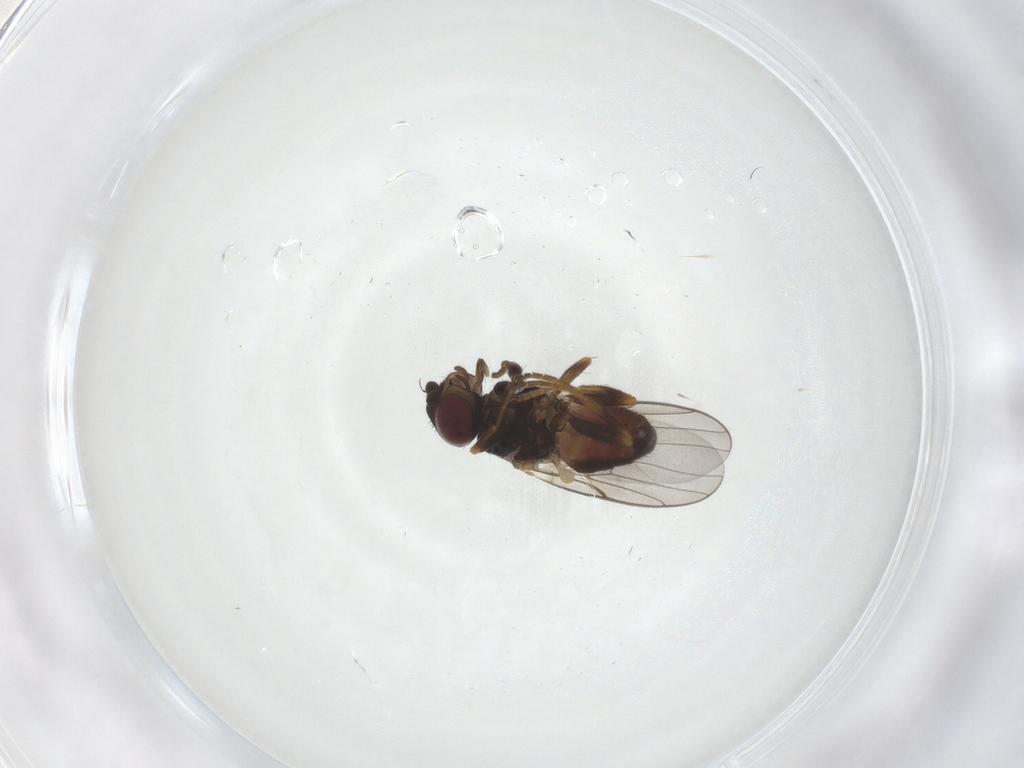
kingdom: Animalia
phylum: Arthropoda
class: Insecta
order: Diptera
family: Chloropidae
